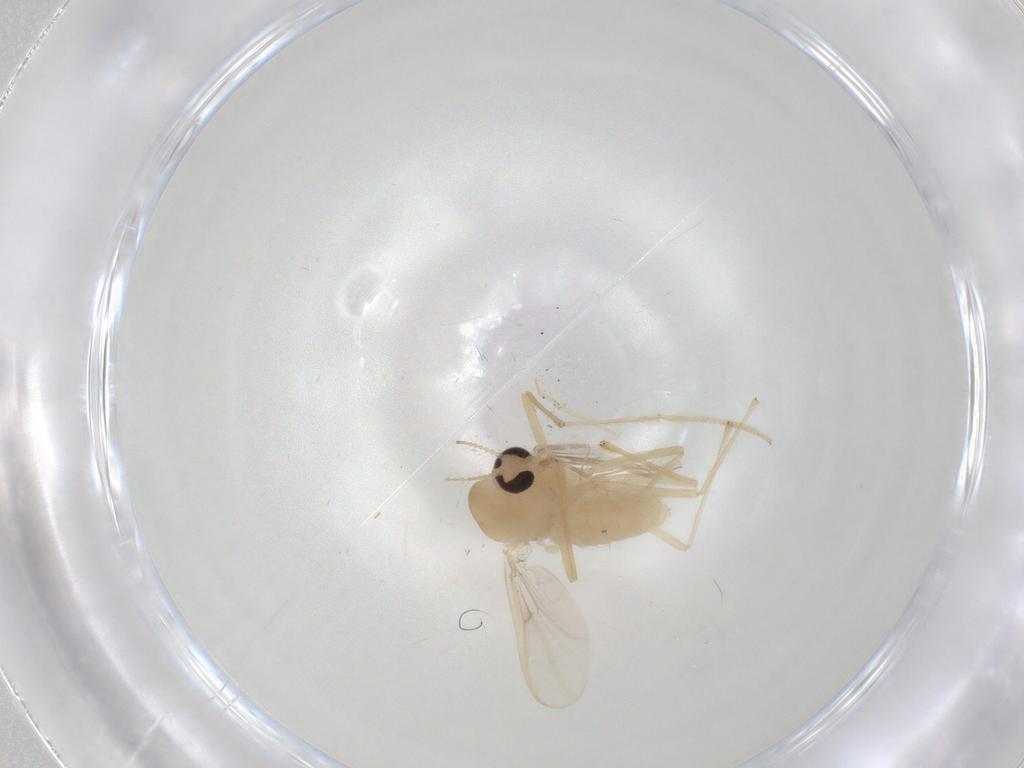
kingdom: Animalia
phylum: Arthropoda
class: Insecta
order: Diptera
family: Chironomidae
